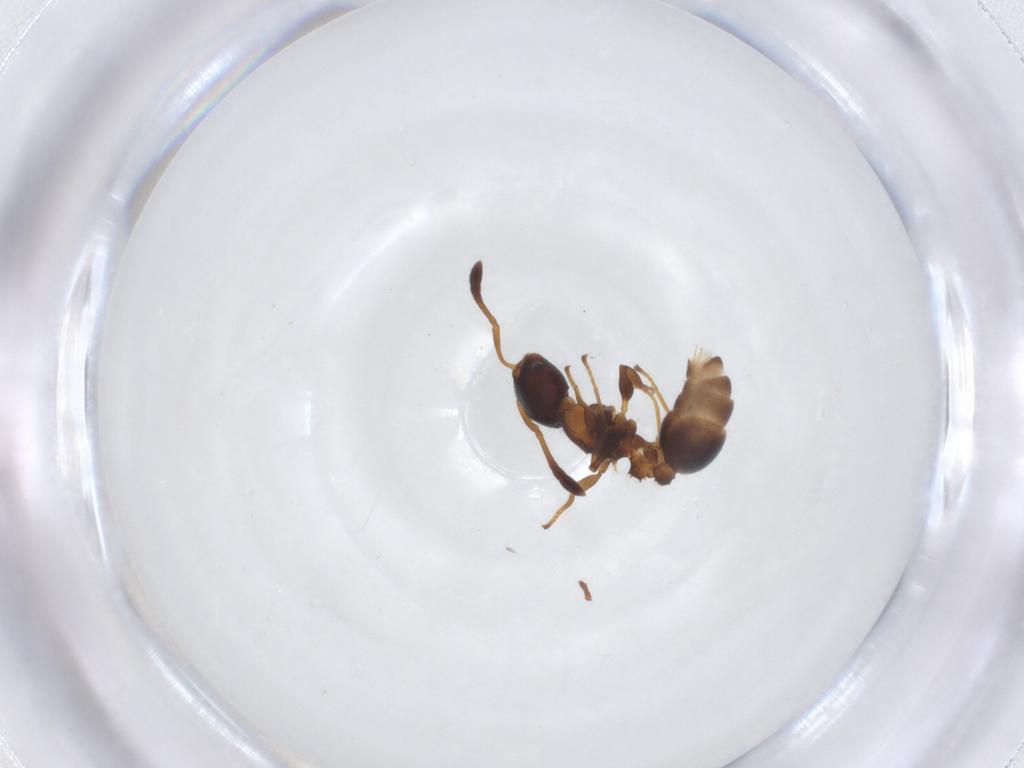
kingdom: Animalia
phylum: Arthropoda
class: Insecta
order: Hymenoptera
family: Formicidae
